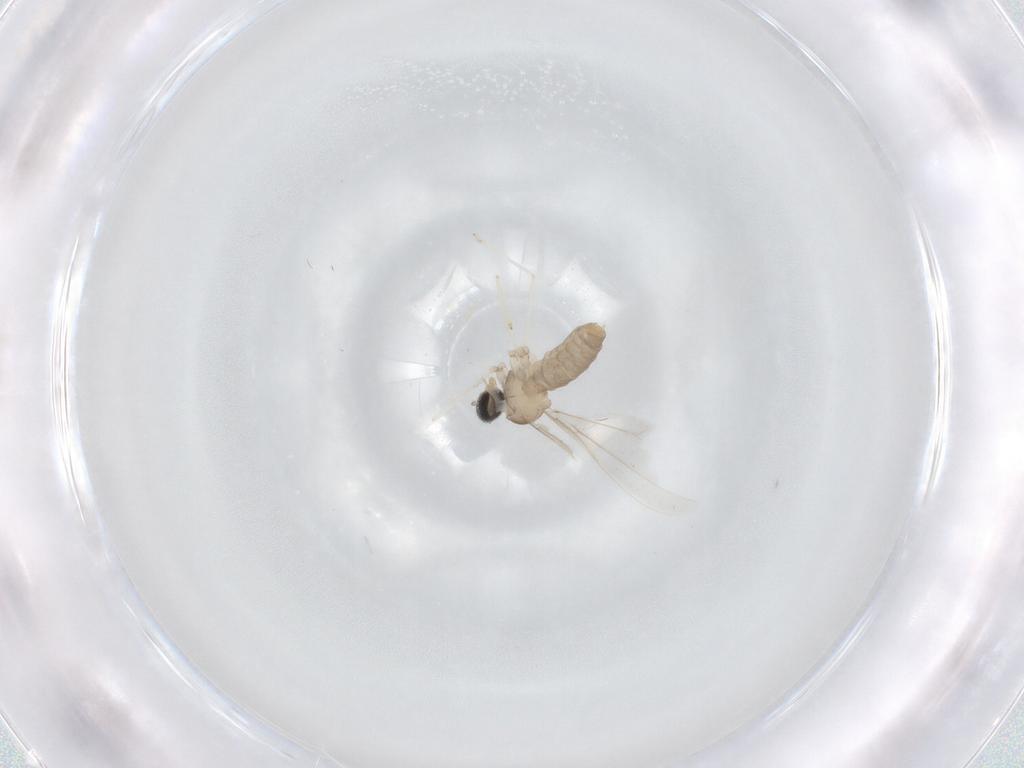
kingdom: Animalia
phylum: Arthropoda
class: Insecta
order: Diptera
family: Cecidomyiidae
